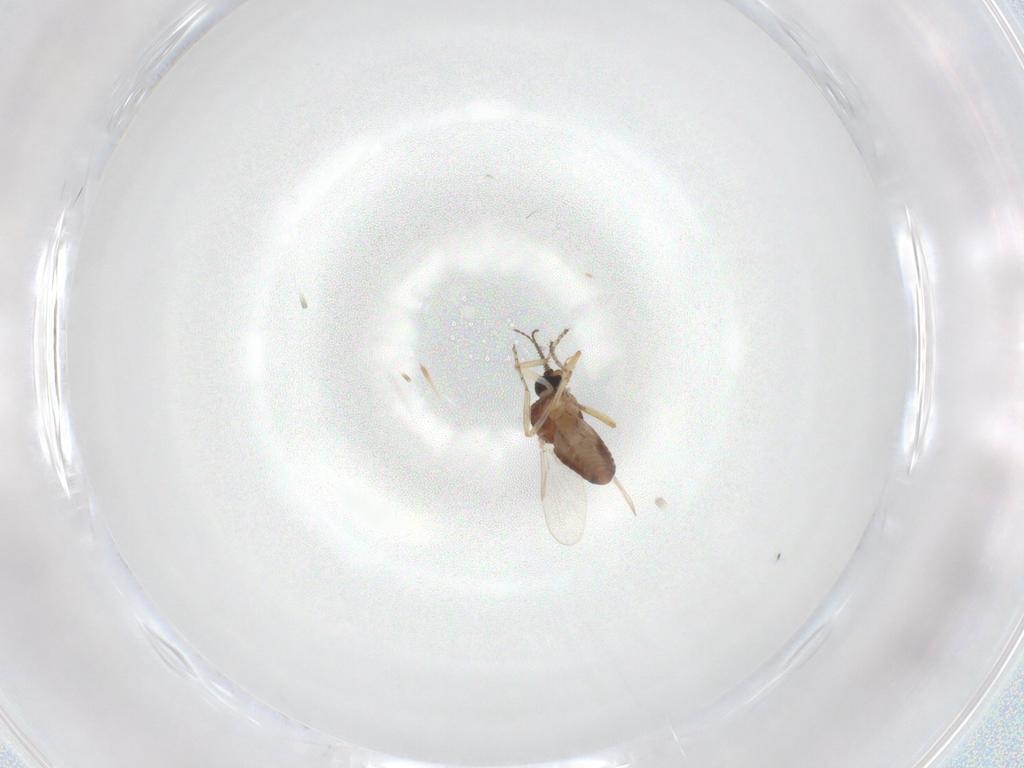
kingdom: Animalia
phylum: Arthropoda
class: Insecta
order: Diptera
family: Ceratopogonidae
